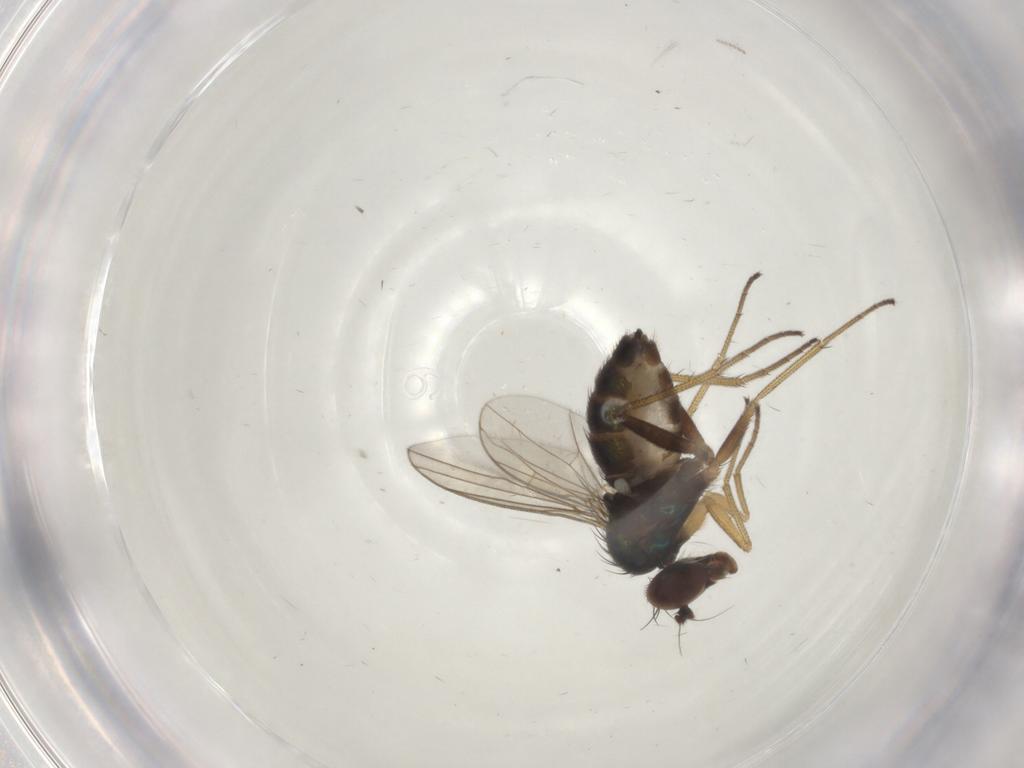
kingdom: Animalia
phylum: Arthropoda
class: Insecta
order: Diptera
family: Dolichopodidae
